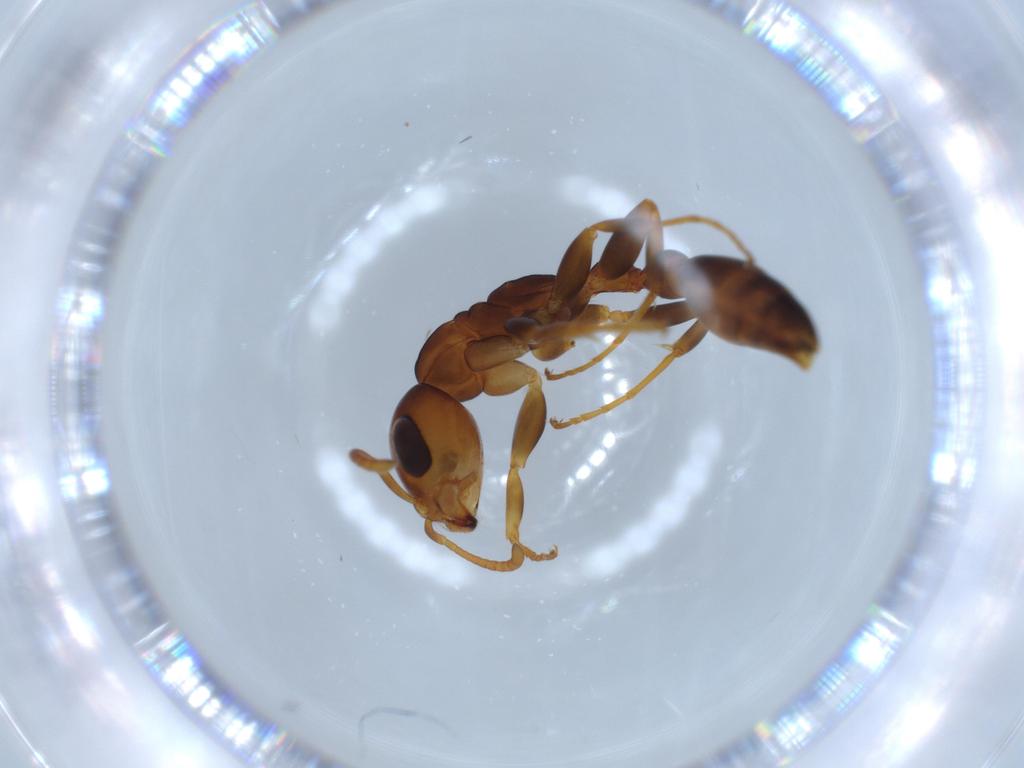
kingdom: Animalia
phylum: Arthropoda
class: Insecta
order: Hymenoptera
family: Formicidae
